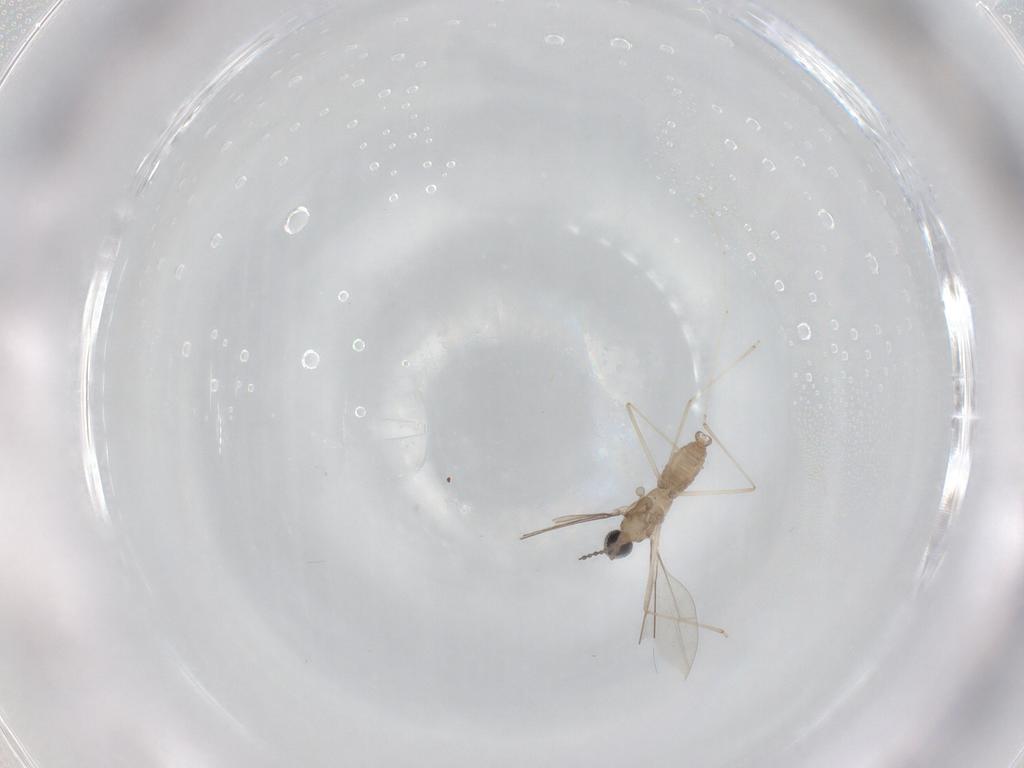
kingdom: Animalia
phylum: Arthropoda
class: Insecta
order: Diptera
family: Cecidomyiidae
